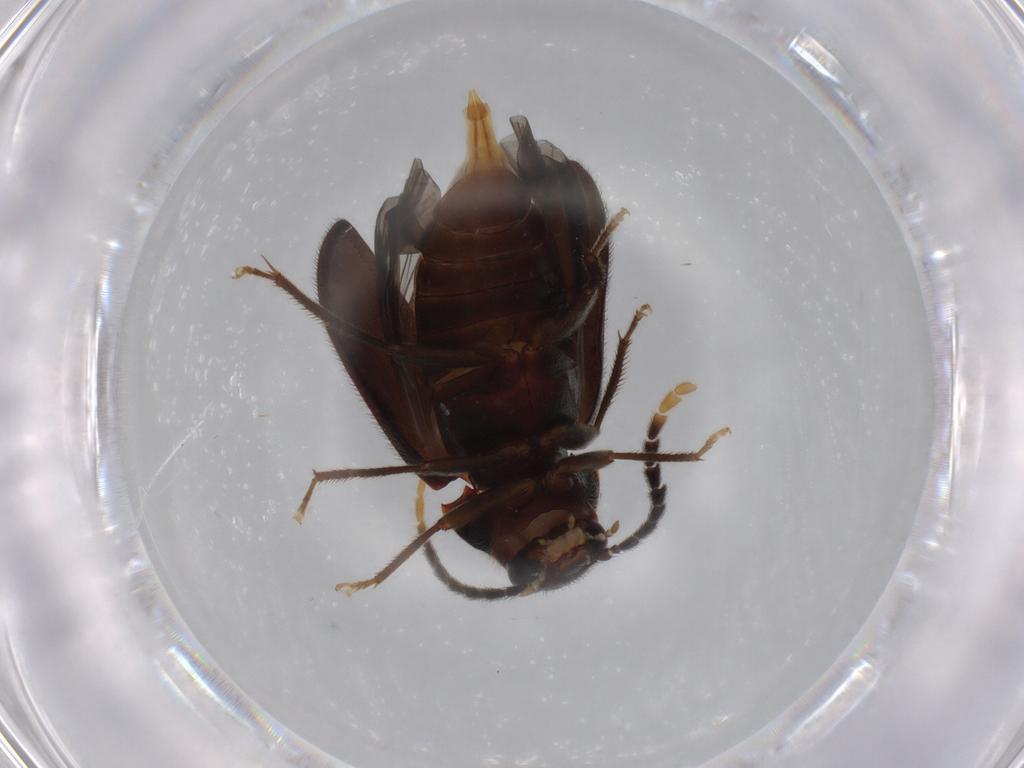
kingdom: Animalia
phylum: Arthropoda
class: Insecta
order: Coleoptera
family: Ptilodactylidae
